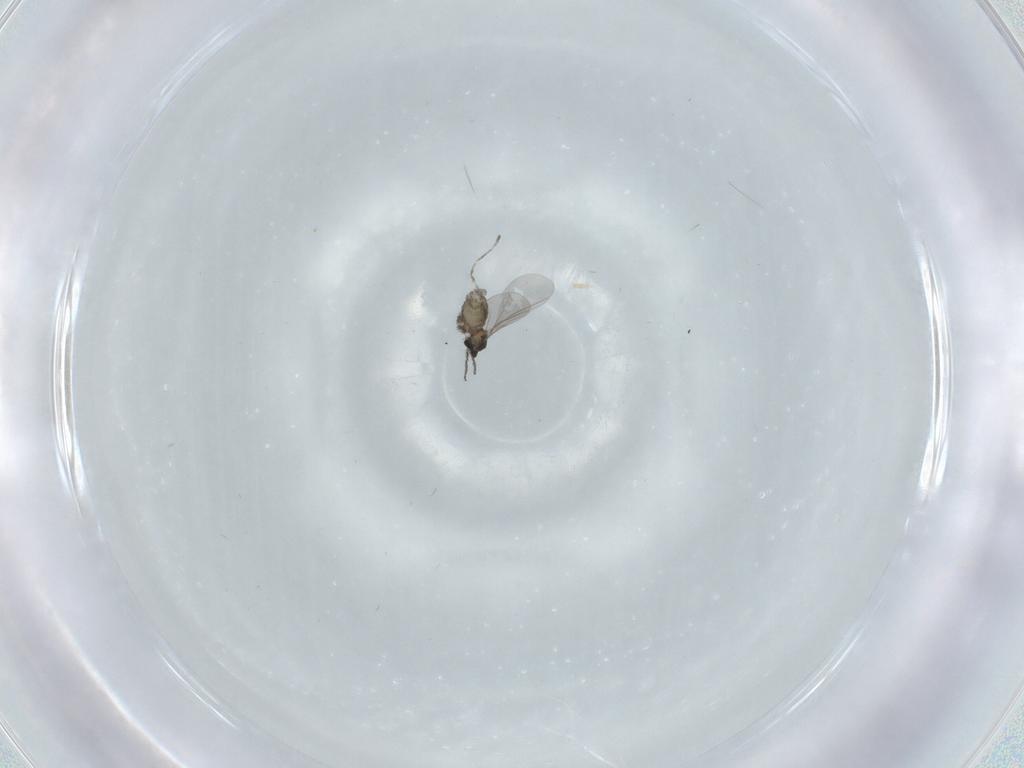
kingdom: Animalia
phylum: Arthropoda
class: Insecta
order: Diptera
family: Cecidomyiidae
